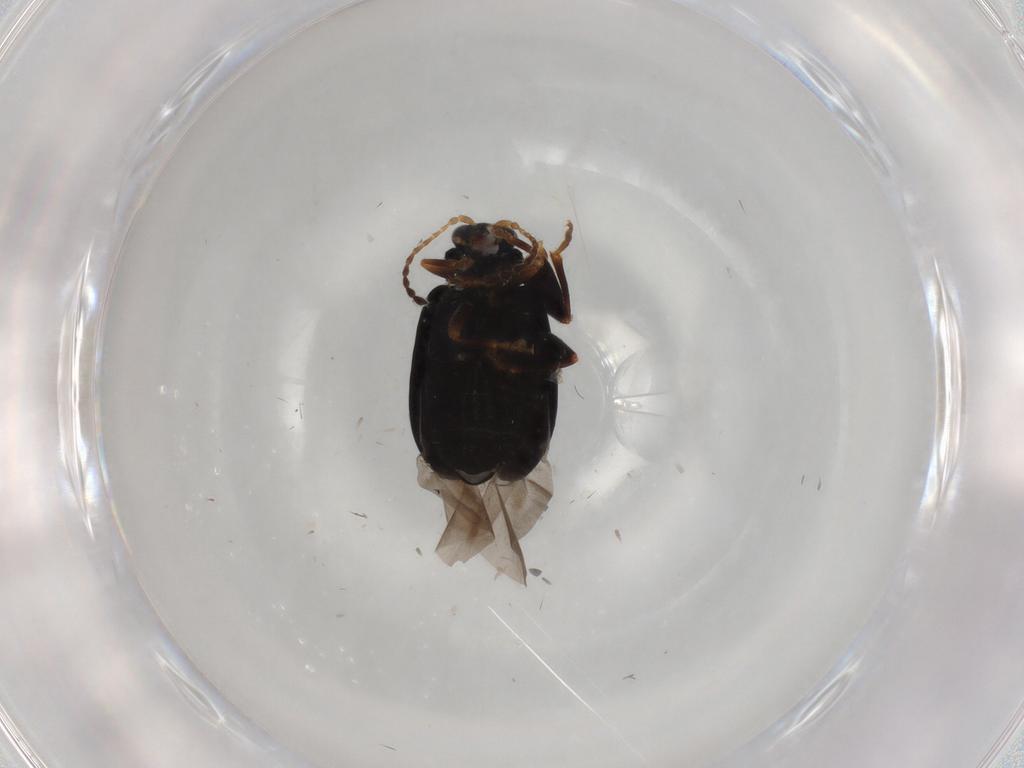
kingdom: Animalia
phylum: Arthropoda
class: Insecta
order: Coleoptera
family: Chrysomelidae
